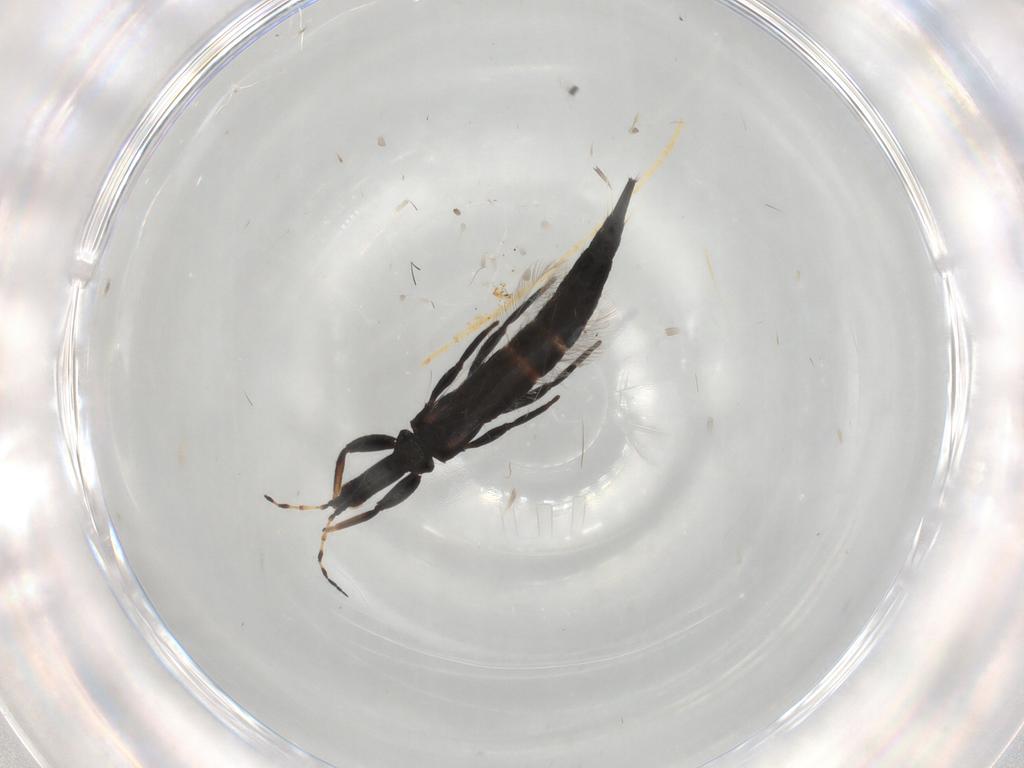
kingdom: Animalia
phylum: Arthropoda
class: Insecta
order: Thysanoptera
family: Phlaeothripidae
